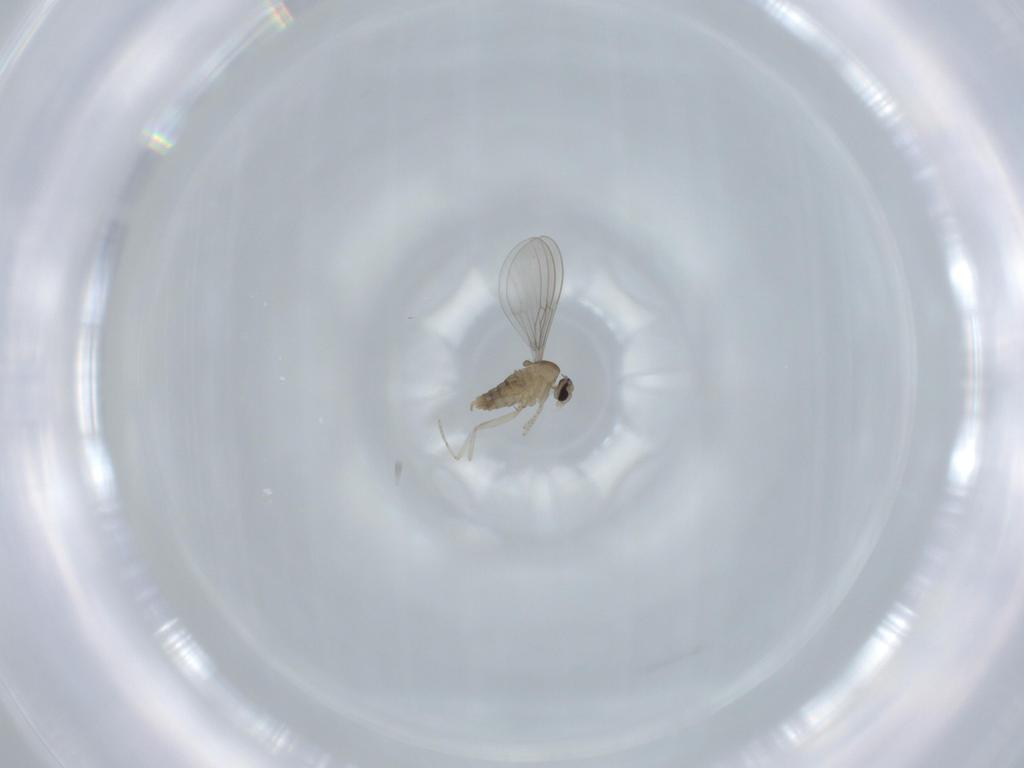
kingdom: Animalia
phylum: Arthropoda
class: Insecta
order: Diptera
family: Cecidomyiidae
